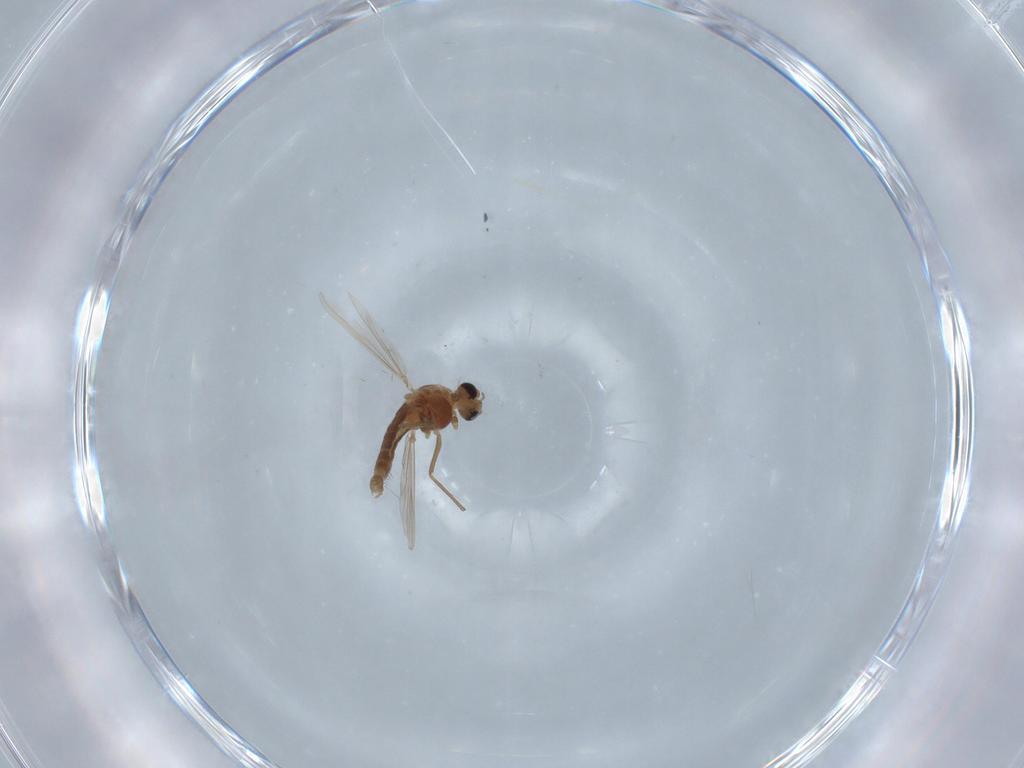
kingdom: Animalia
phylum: Arthropoda
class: Insecta
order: Diptera
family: Chironomidae
